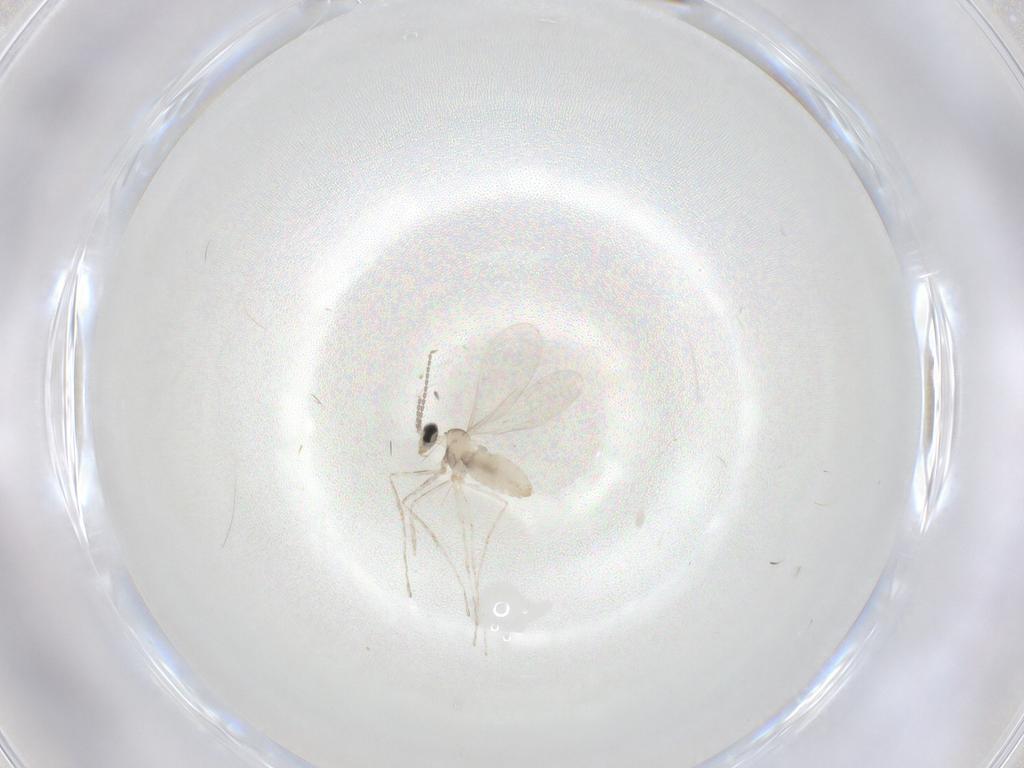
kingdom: Animalia
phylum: Arthropoda
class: Insecta
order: Diptera
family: Cecidomyiidae
